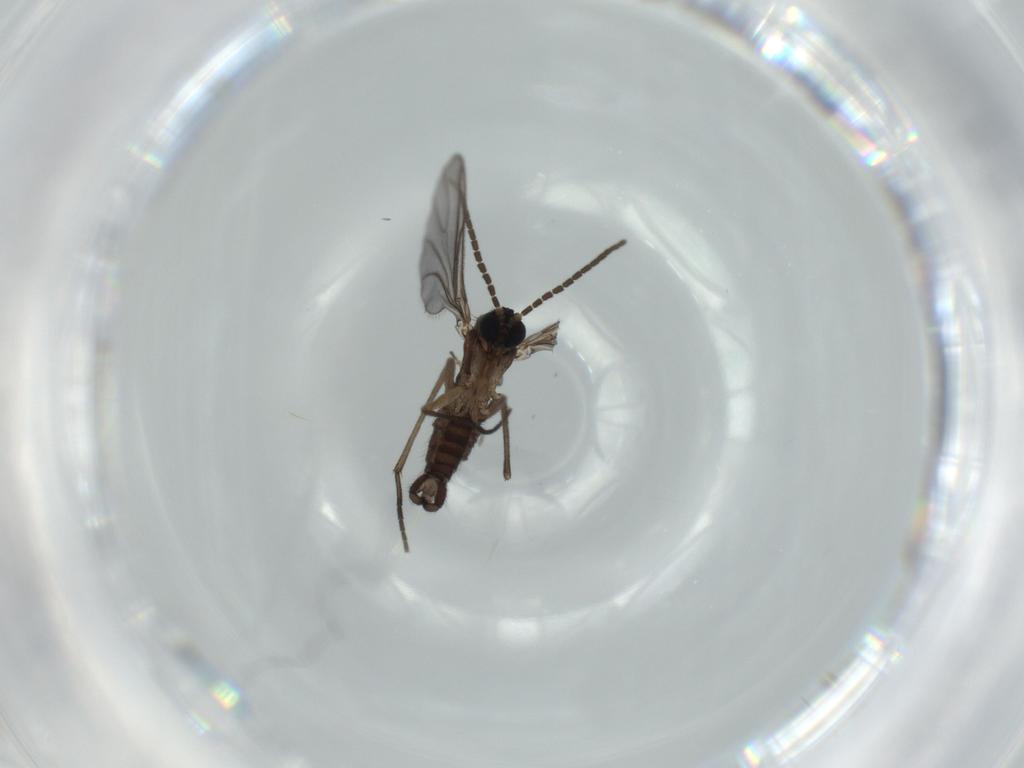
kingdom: Animalia
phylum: Arthropoda
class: Insecta
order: Diptera
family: Sciaridae
